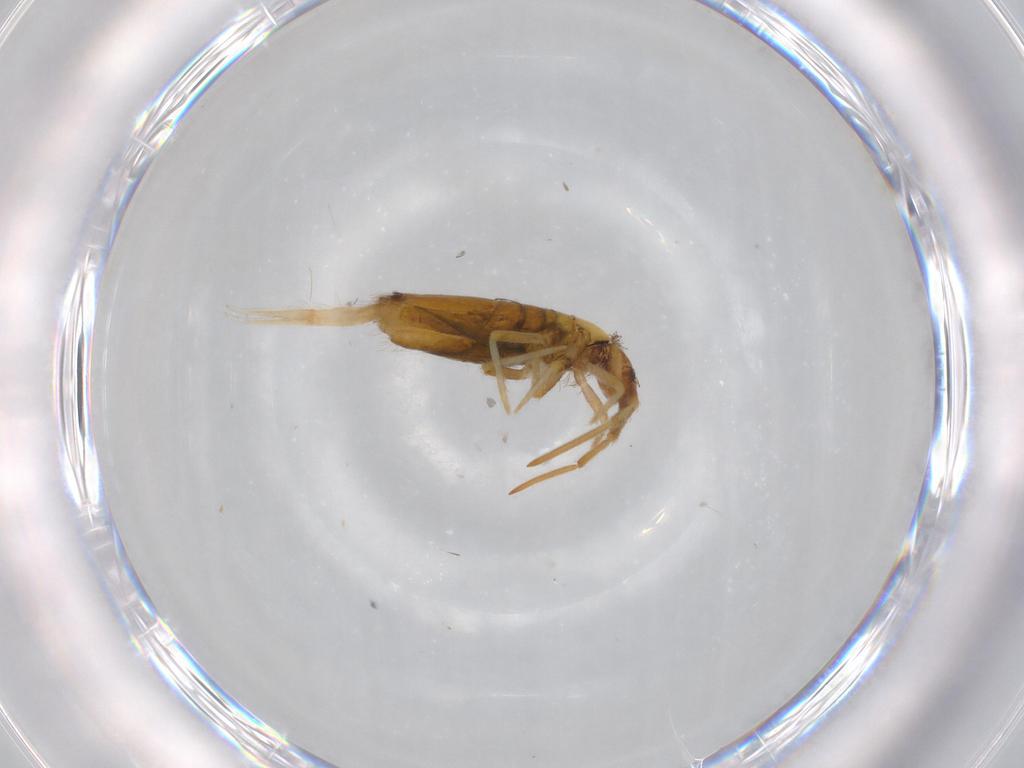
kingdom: Animalia
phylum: Arthropoda
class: Collembola
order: Entomobryomorpha
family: Entomobryidae
